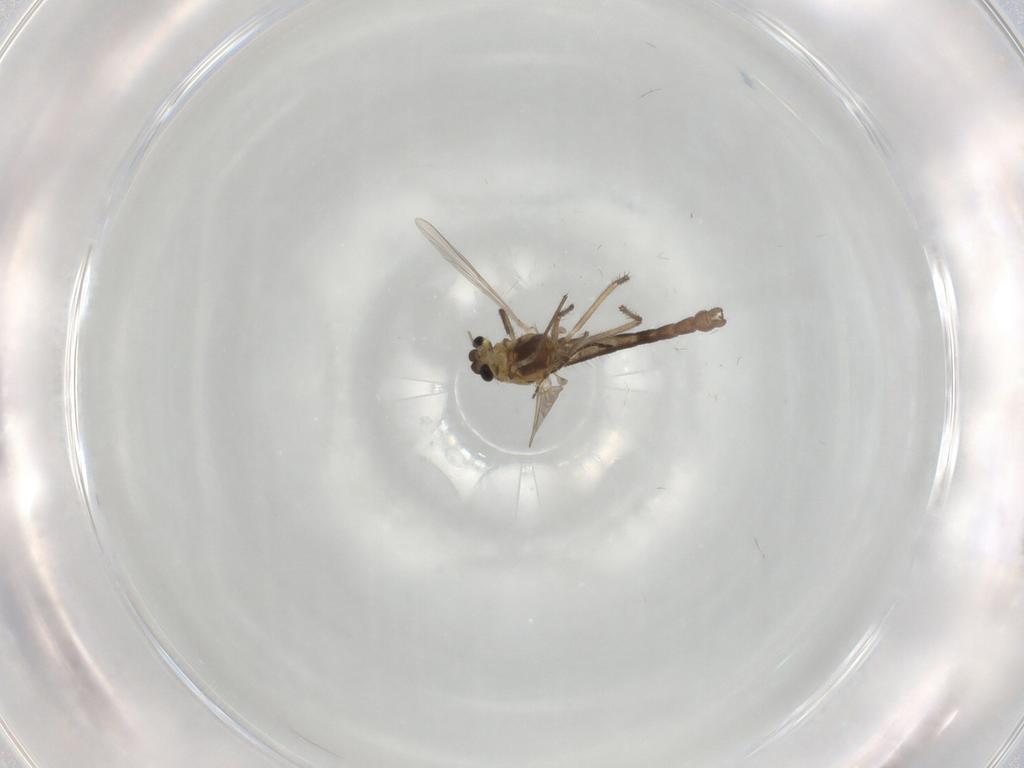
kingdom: Animalia
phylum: Arthropoda
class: Insecta
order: Diptera
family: Chironomidae
